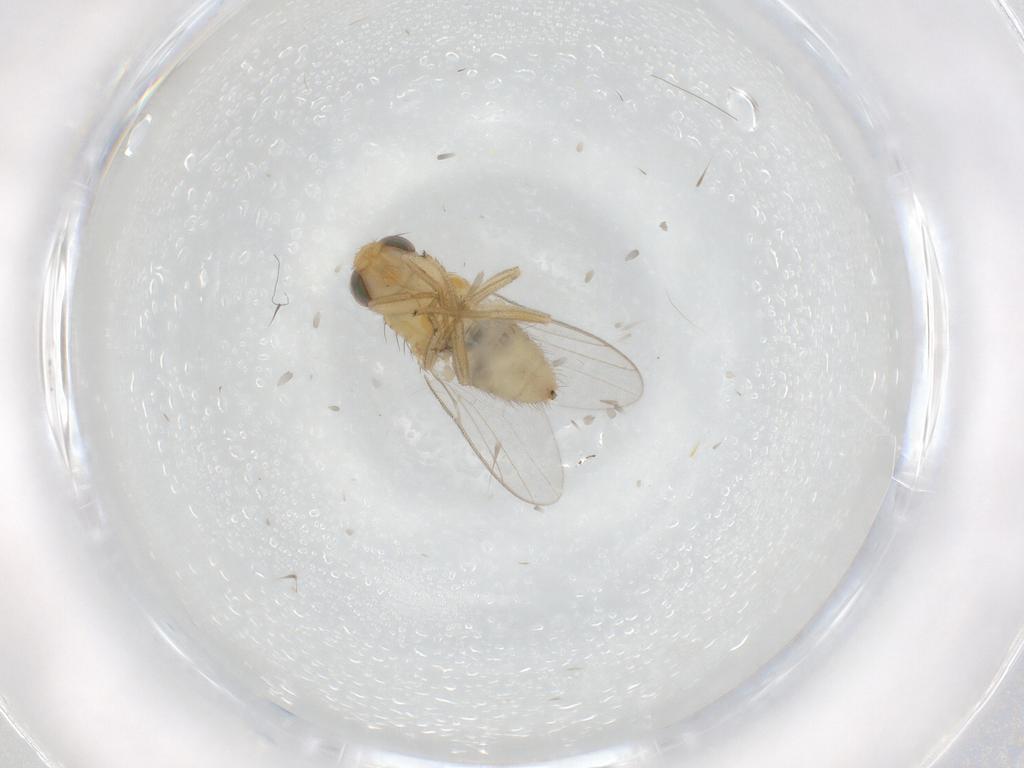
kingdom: Animalia
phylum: Arthropoda
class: Insecta
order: Diptera
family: Chloropidae
